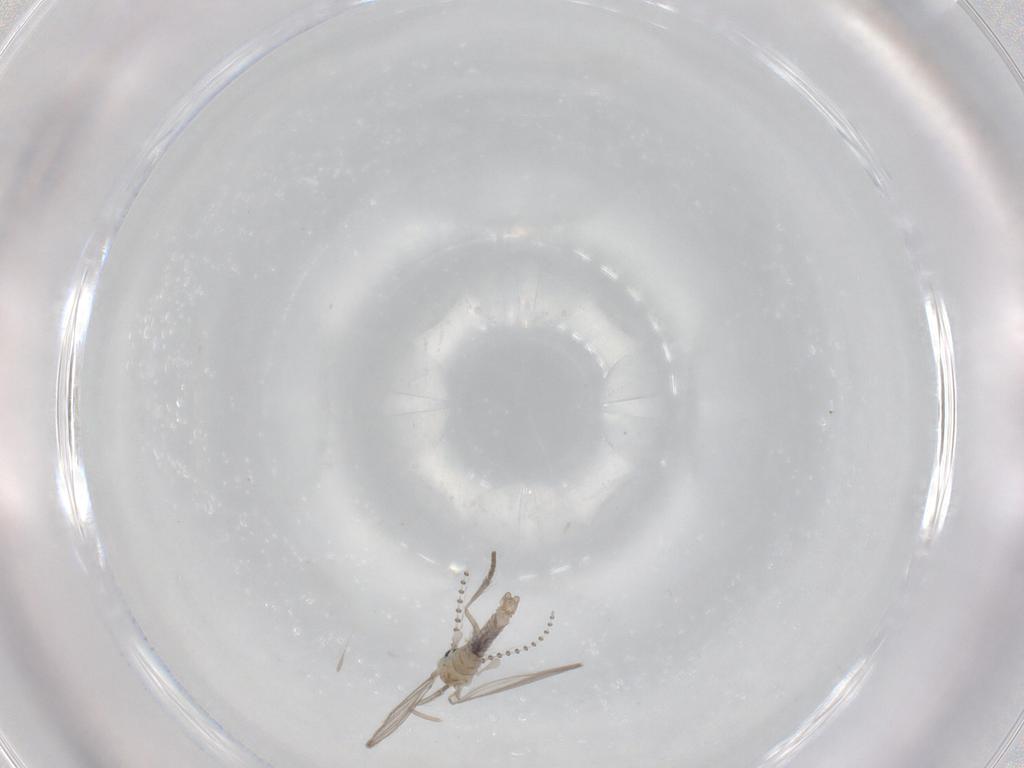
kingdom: Animalia
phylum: Arthropoda
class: Insecta
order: Diptera
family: Psychodidae
